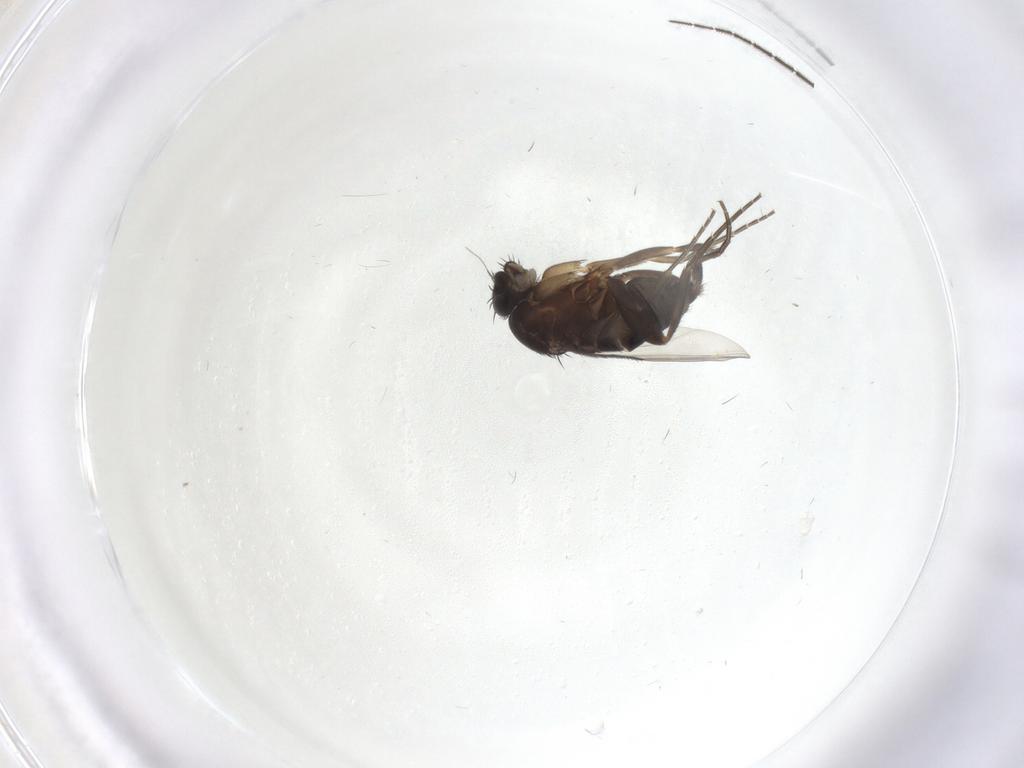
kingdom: Animalia
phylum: Arthropoda
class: Insecta
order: Diptera
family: Phoridae
